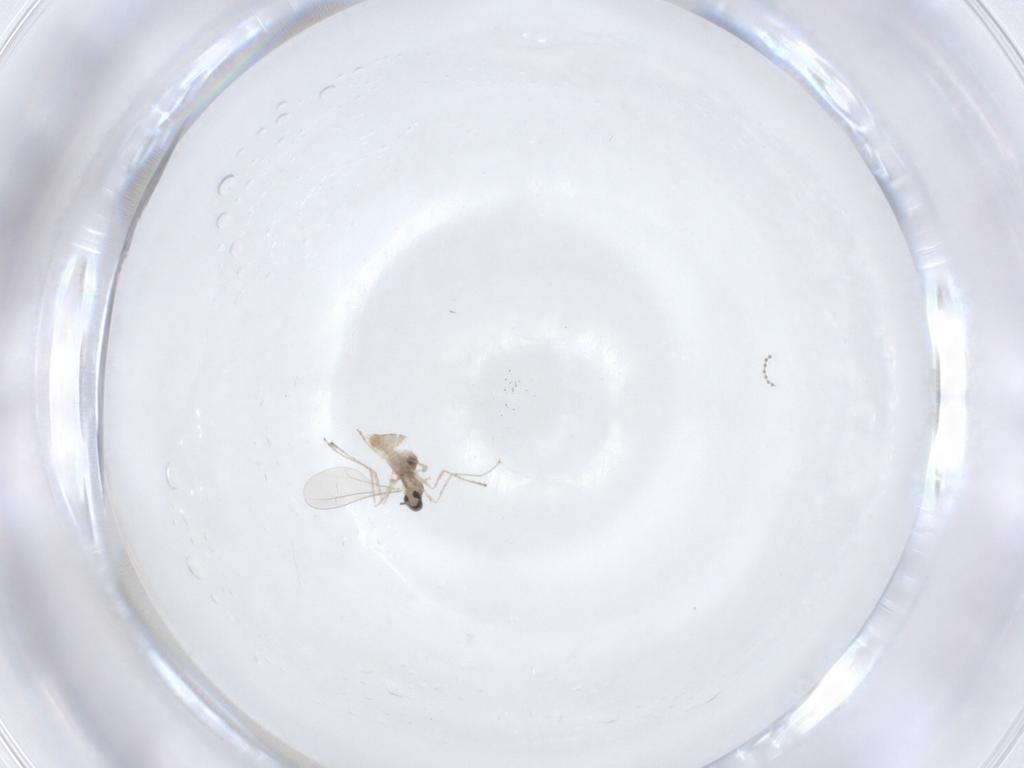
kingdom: Animalia
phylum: Arthropoda
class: Insecta
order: Diptera
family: Cecidomyiidae
